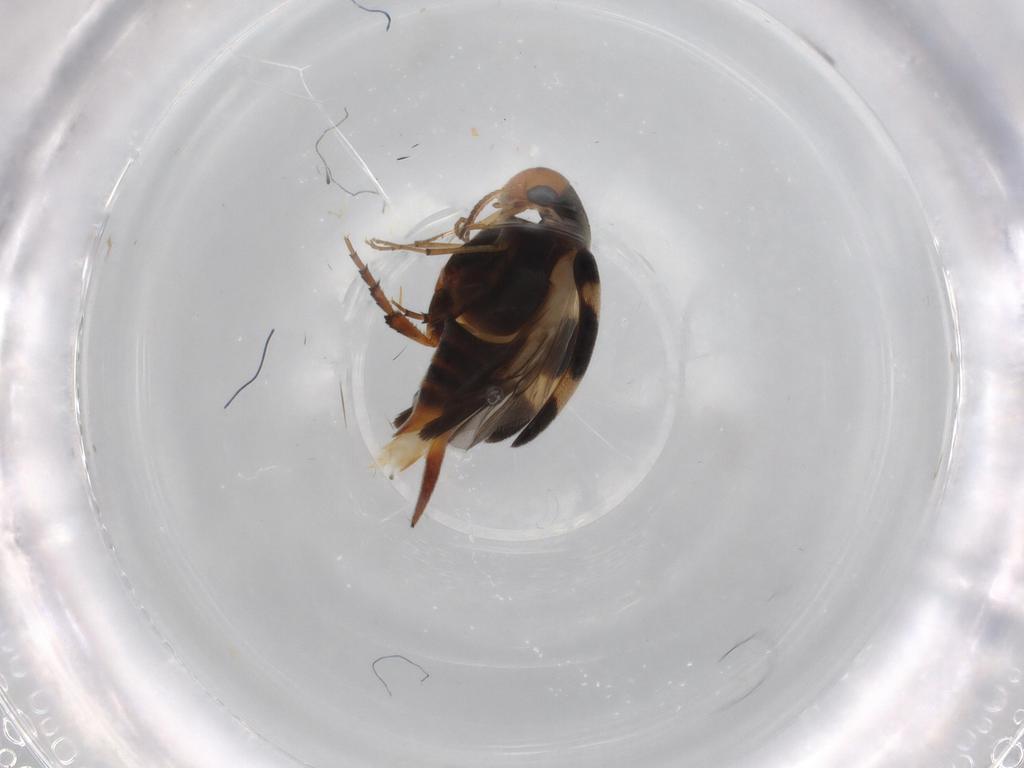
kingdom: Animalia
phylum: Arthropoda
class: Insecta
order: Coleoptera
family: Mordellidae
